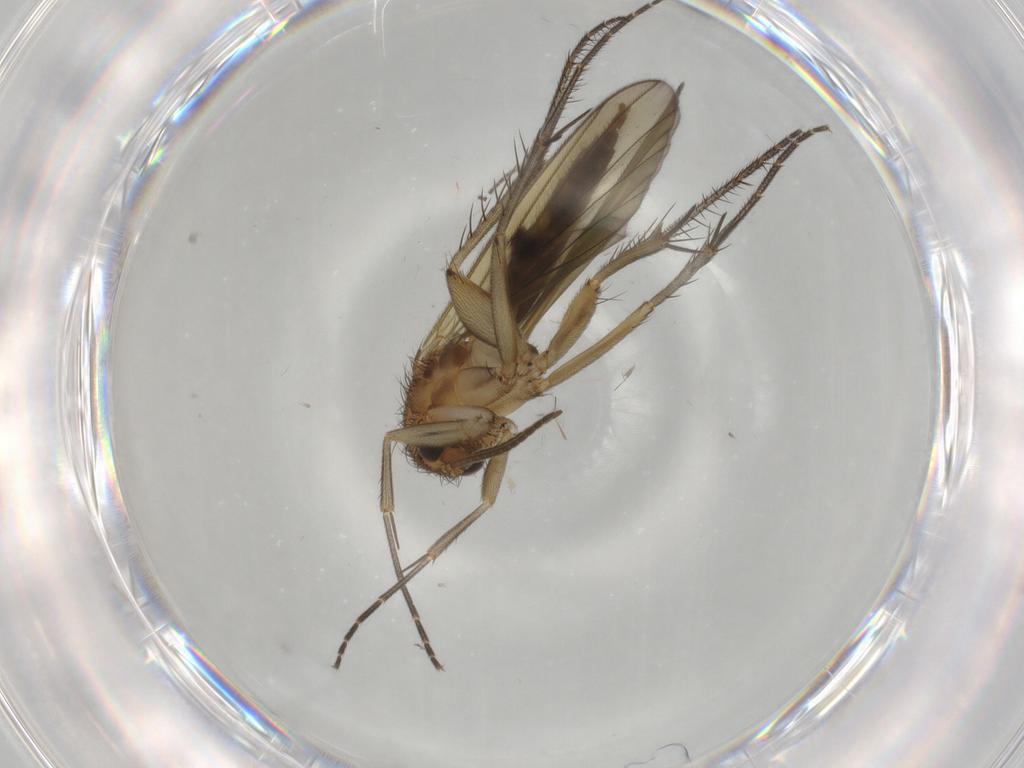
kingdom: Animalia
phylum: Arthropoda
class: Insecta
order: Diptera
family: Mycetophilidae
